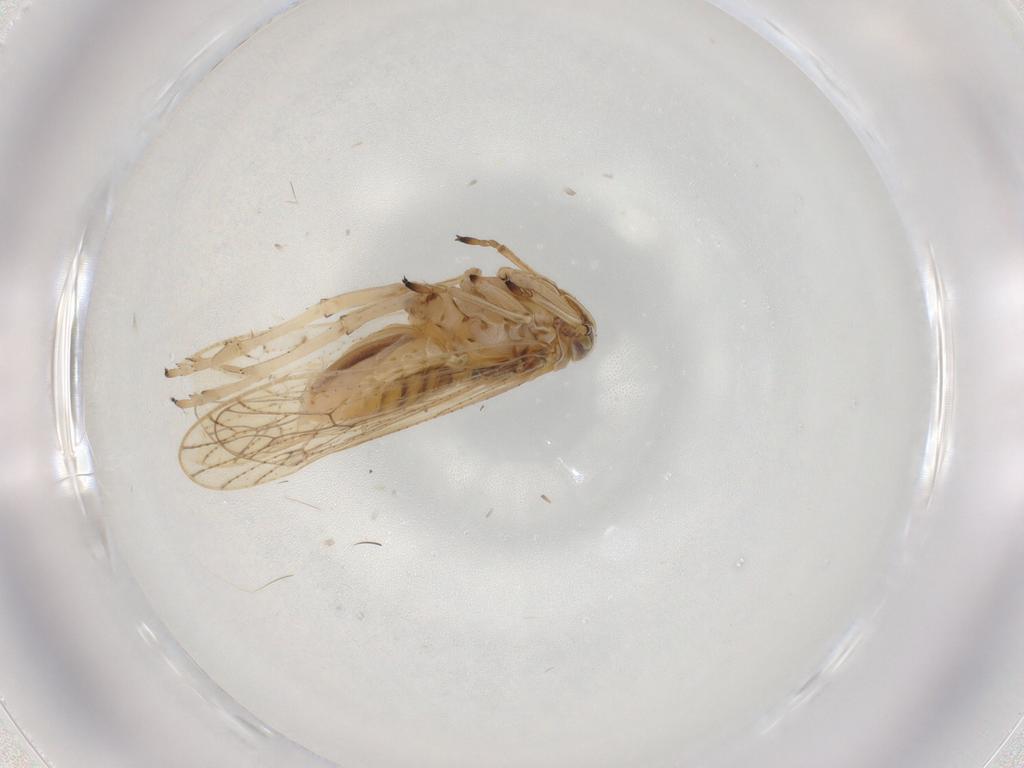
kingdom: Animalia
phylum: Arthropoda
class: Insecta
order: Hemiptera
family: Delphacidae
